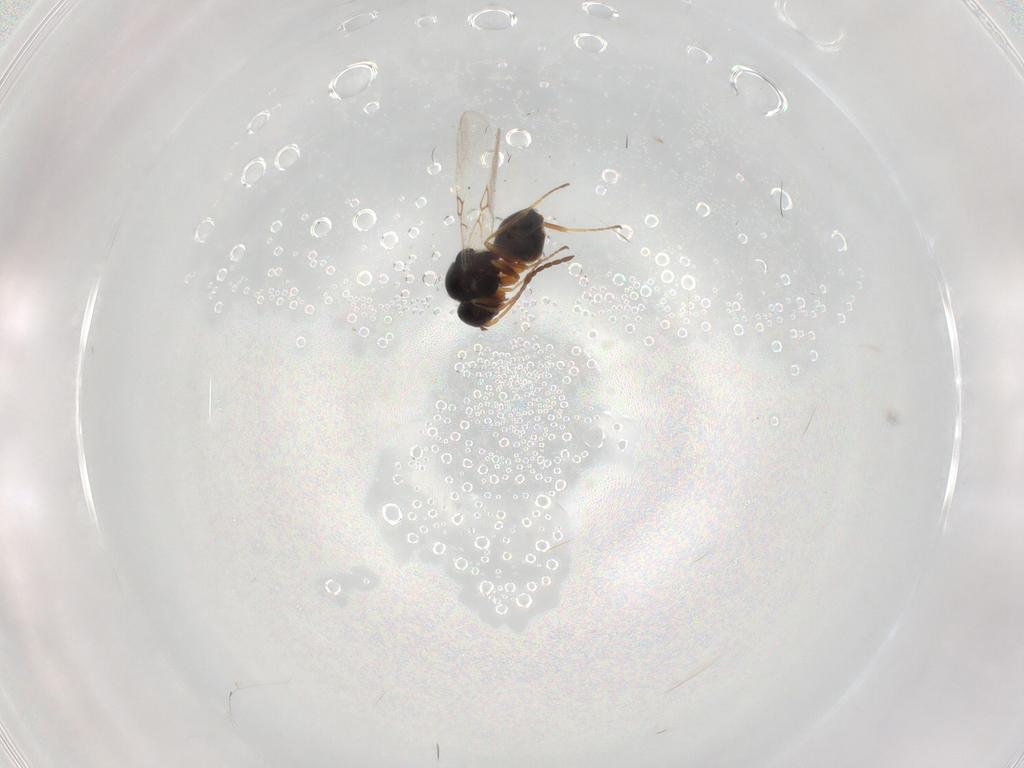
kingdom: Animalia
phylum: Arthropoda
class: Insecta
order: Hymenoptera
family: Figitidae
